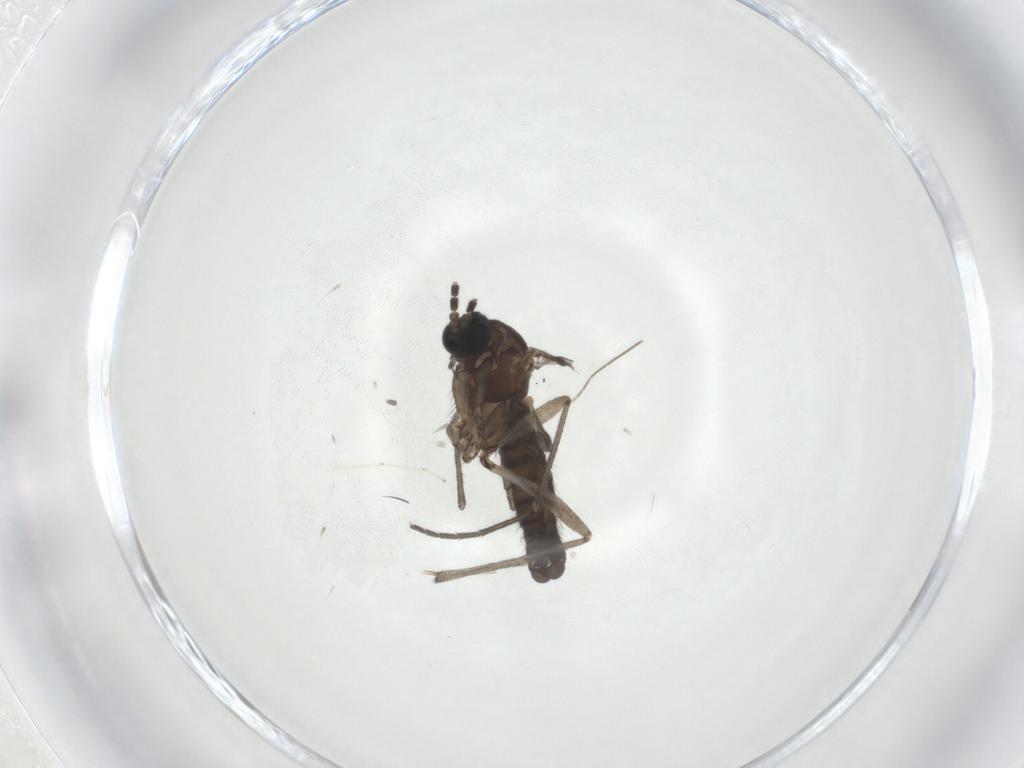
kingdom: Animalia
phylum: Arthropoda
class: Insecta
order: Diptera
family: Sciaridae
